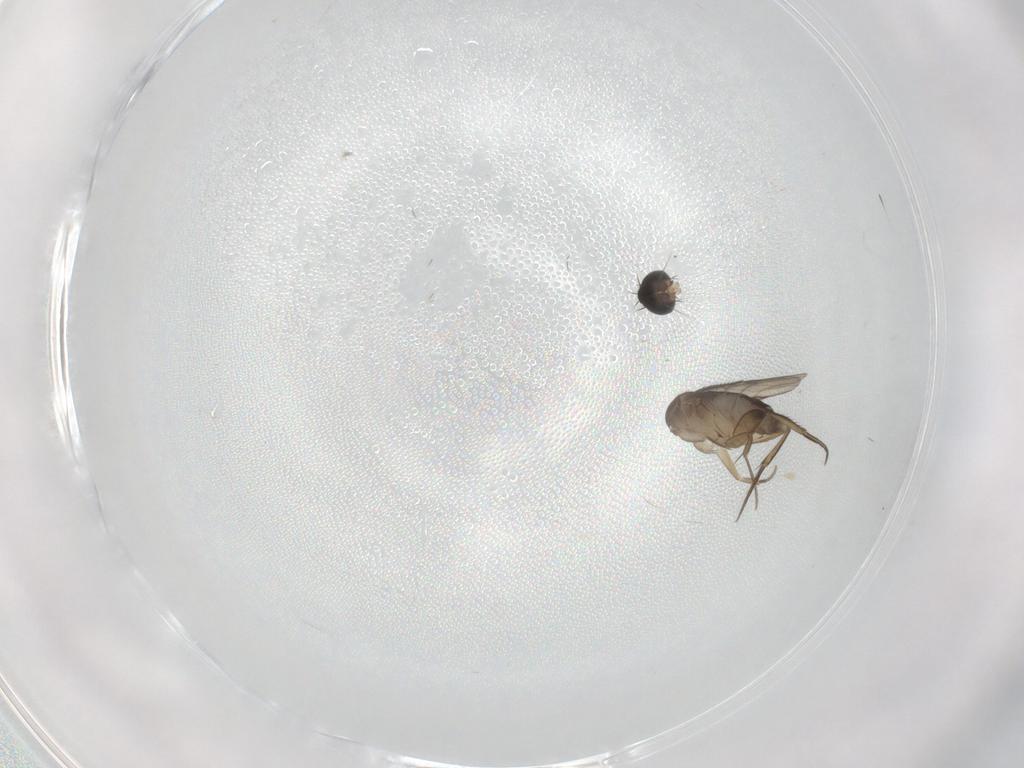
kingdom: Animalia
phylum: Arthropoda
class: Insecta
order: Diptera
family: Phoridae
